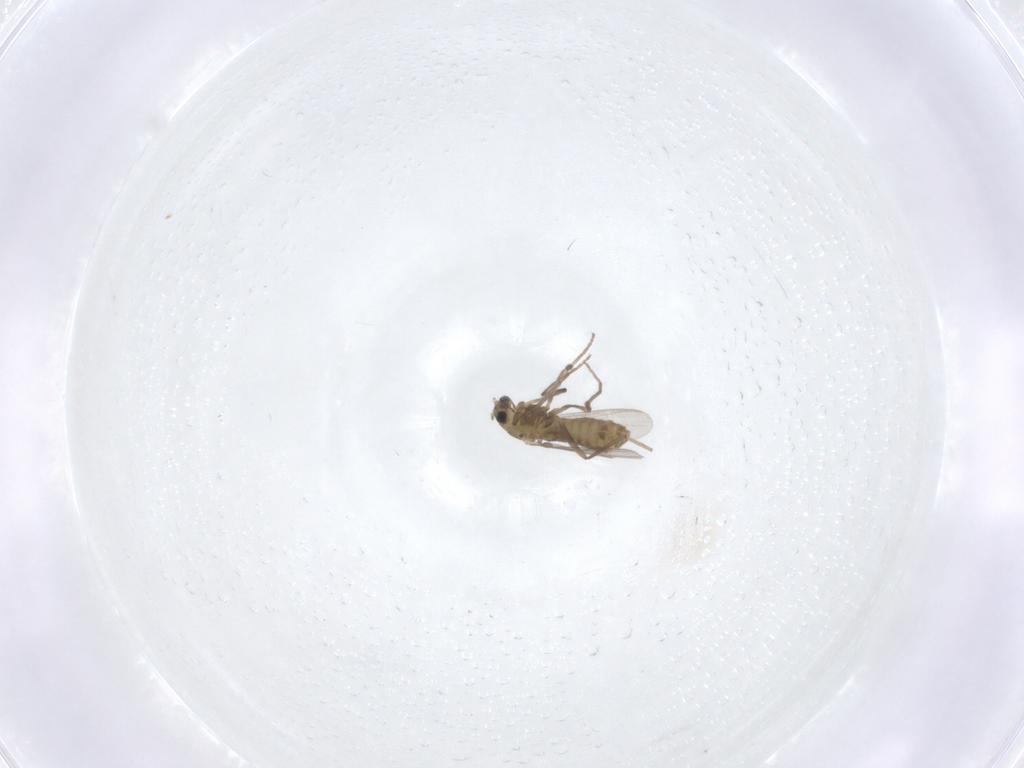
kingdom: Animalia
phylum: Arthropoda
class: Insecta
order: Diptera
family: Chironomidae
